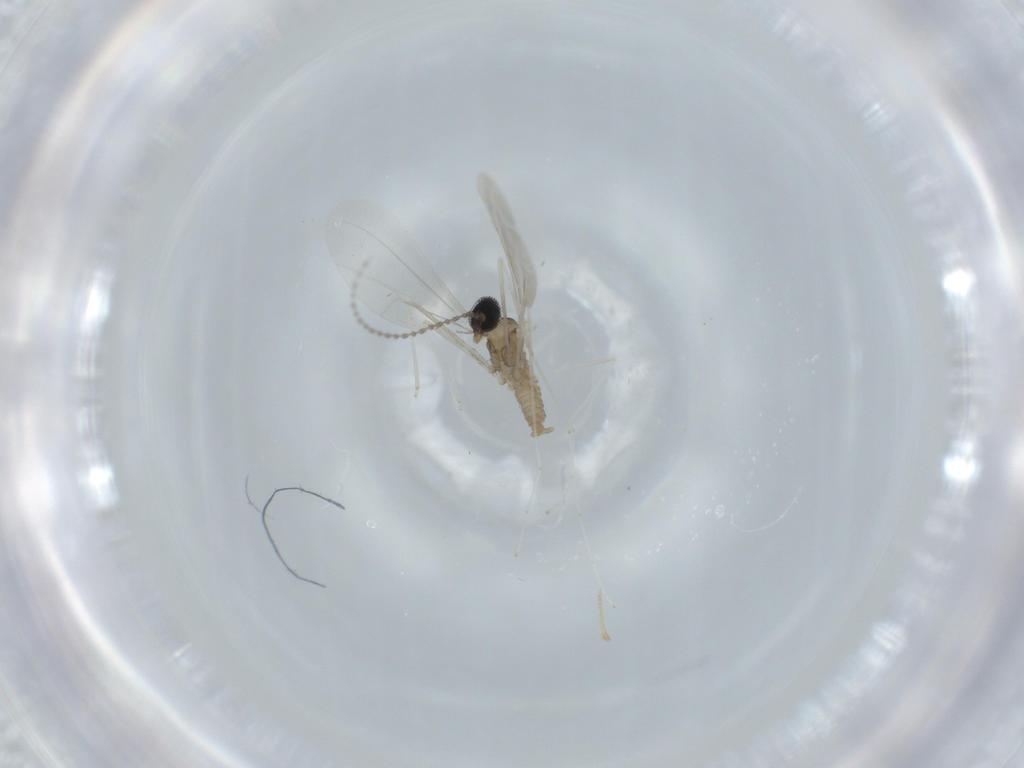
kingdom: Animalia
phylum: Arthropoda
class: Insecta
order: Diptera
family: Cecidomyiidae
